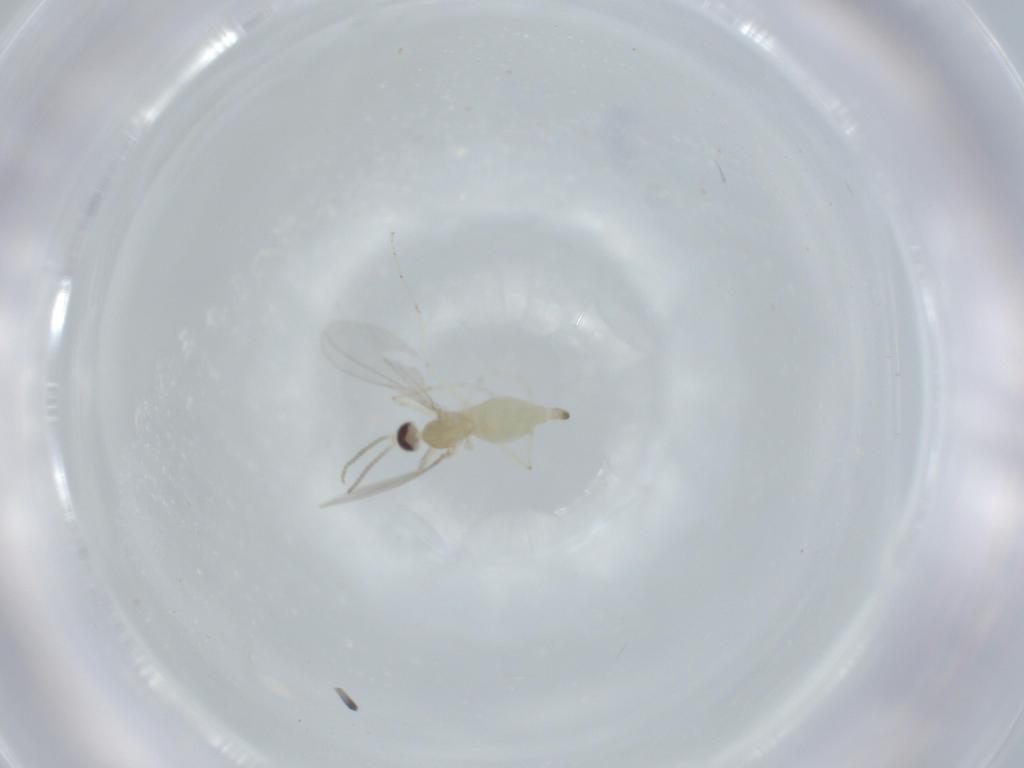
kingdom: Animalia
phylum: Arthropoda
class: Insecta
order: Diptera
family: Cecidomyiidae
